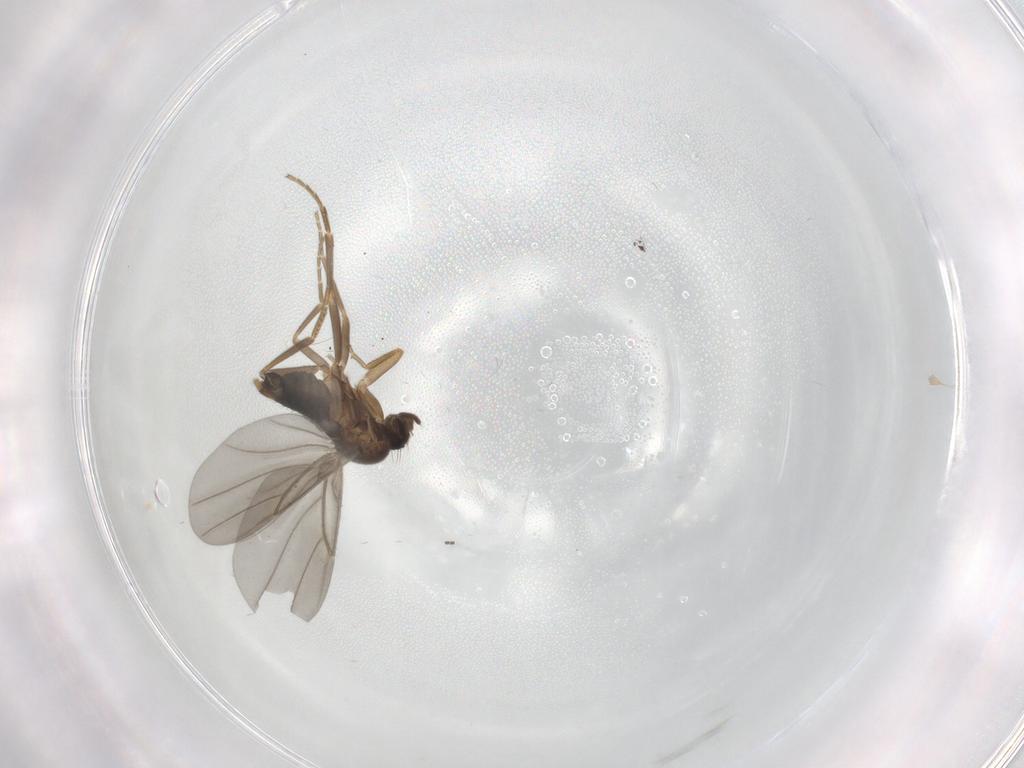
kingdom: Animalia
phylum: Arthropoda
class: Insecta
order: Diptera
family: Sciaridae
